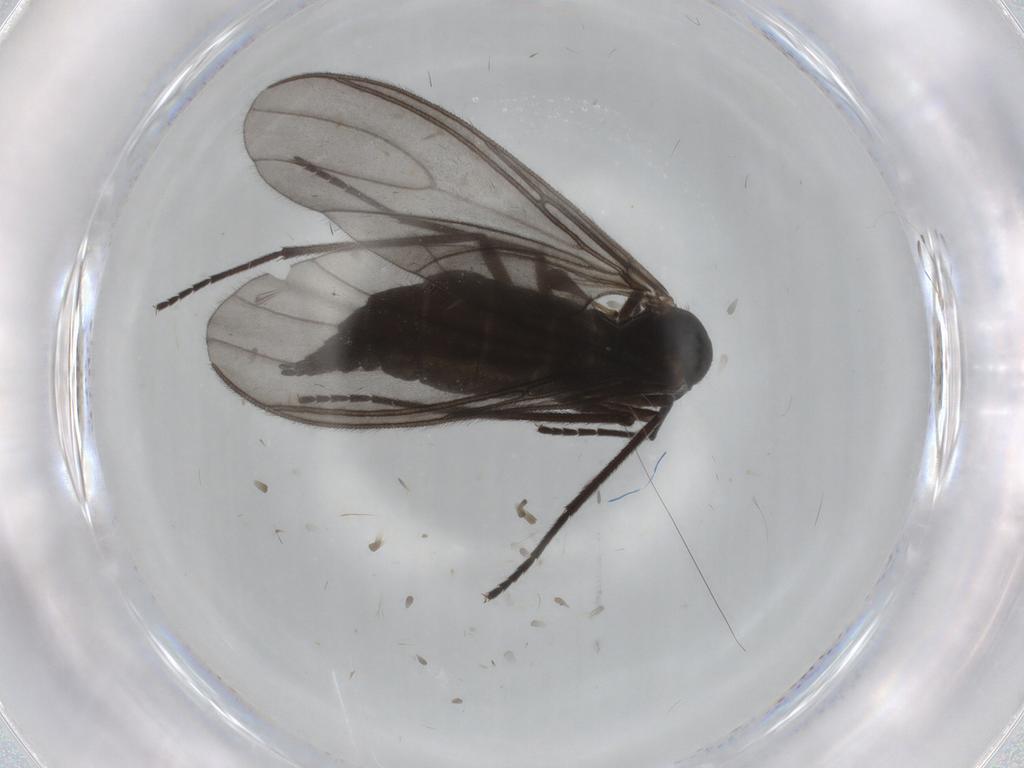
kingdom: Animalia
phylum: Arthropoda
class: Insecta
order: Diptera
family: Sciaridae
